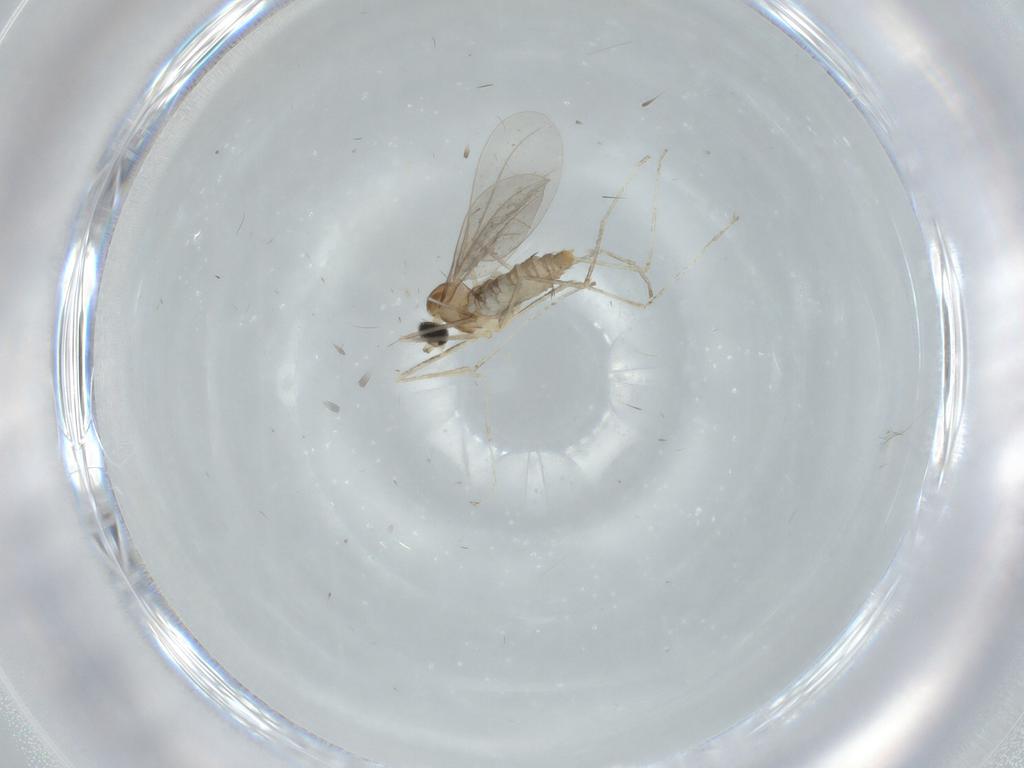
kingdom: Animalia
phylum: Arthropoda
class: Insecta
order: Diptera
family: Cecidomyiidae
